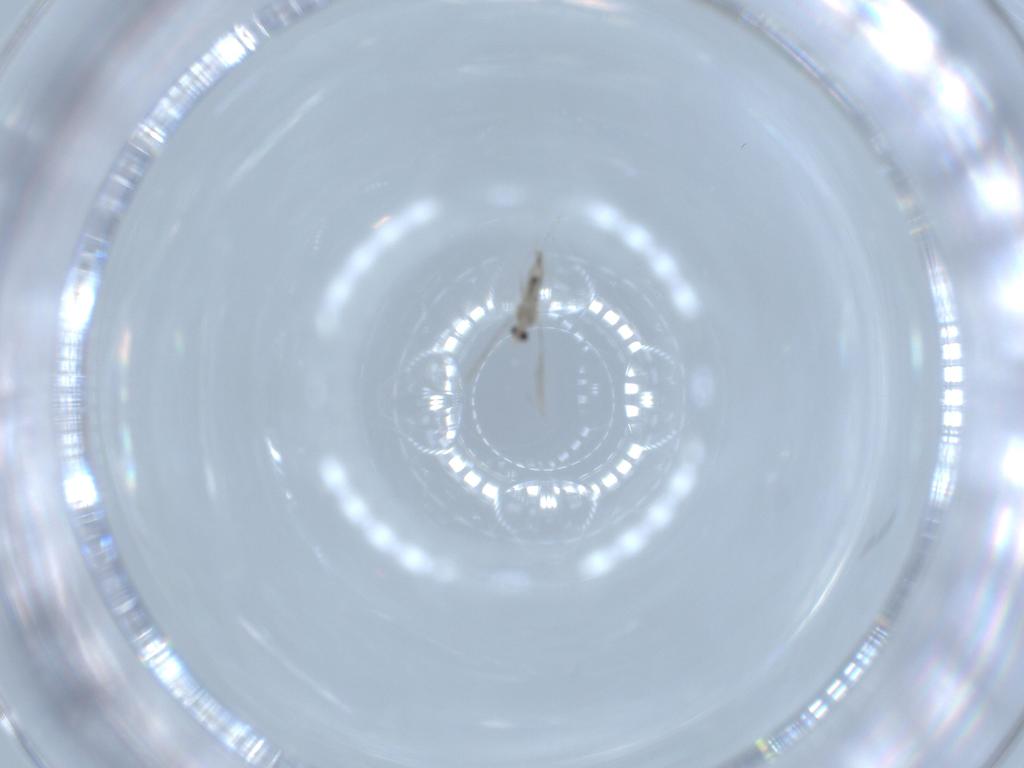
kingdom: Animalia
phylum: Arthropoda
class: Insecta
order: Diptera
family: Cecidomyiidae
